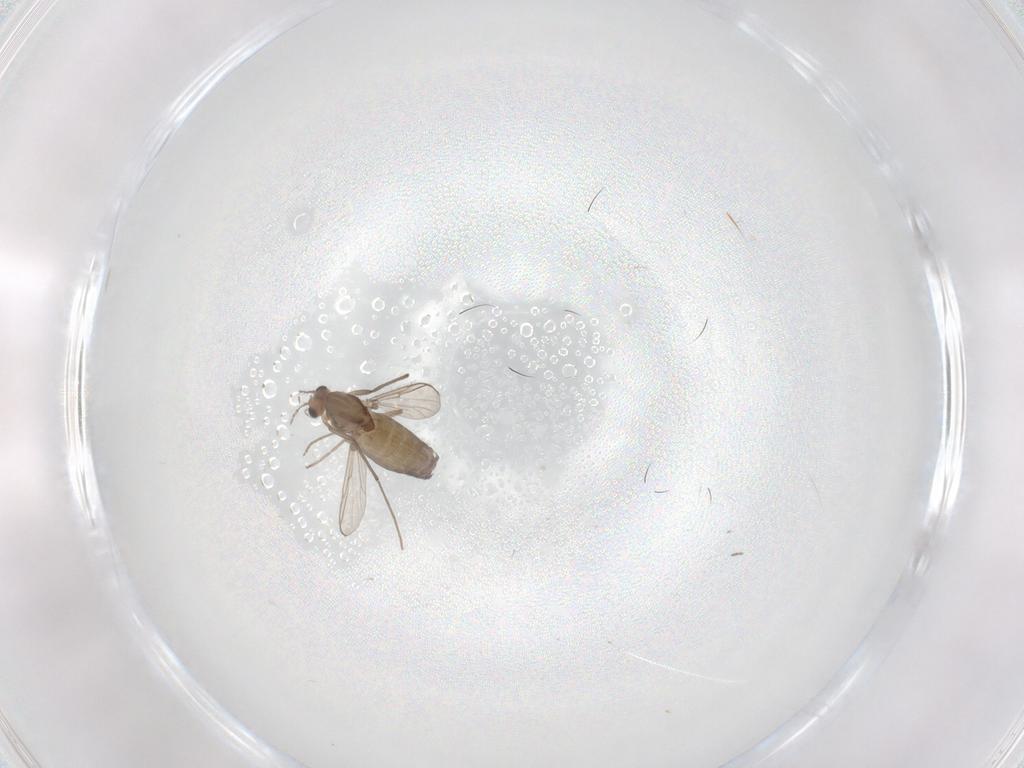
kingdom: Animalia
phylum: Arthropoda
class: Insecta
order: Diptera
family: Chironomidae
